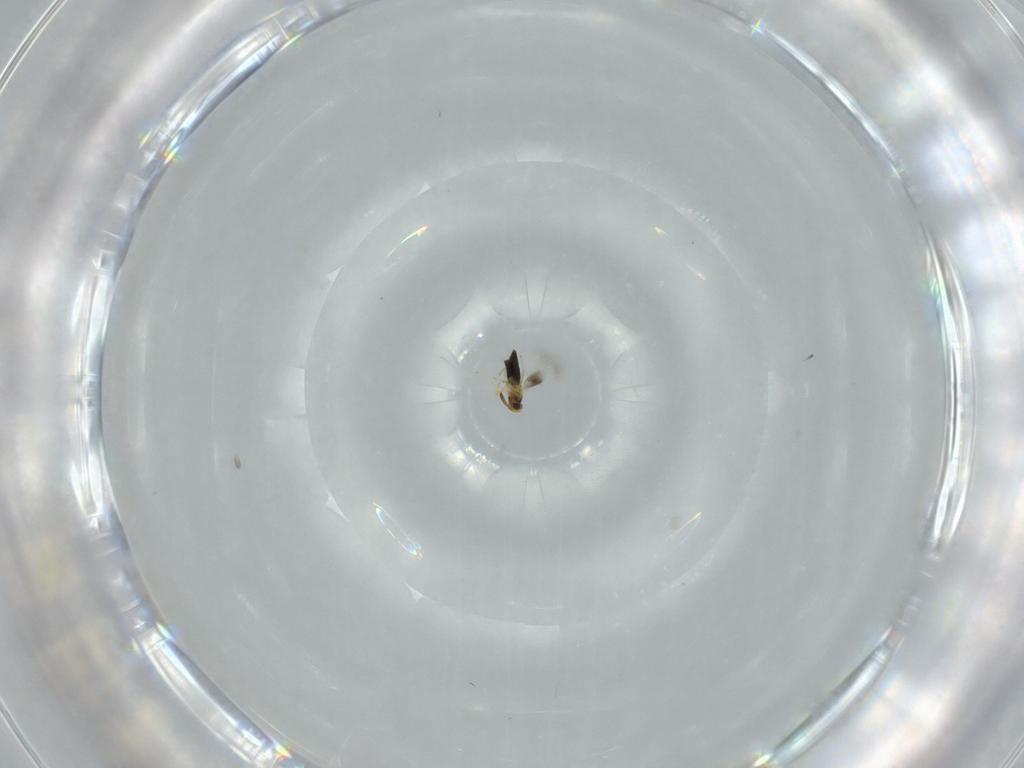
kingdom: Animalia
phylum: Arthropoda
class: Insecta
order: Hymenoptera
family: Signiphoridae
